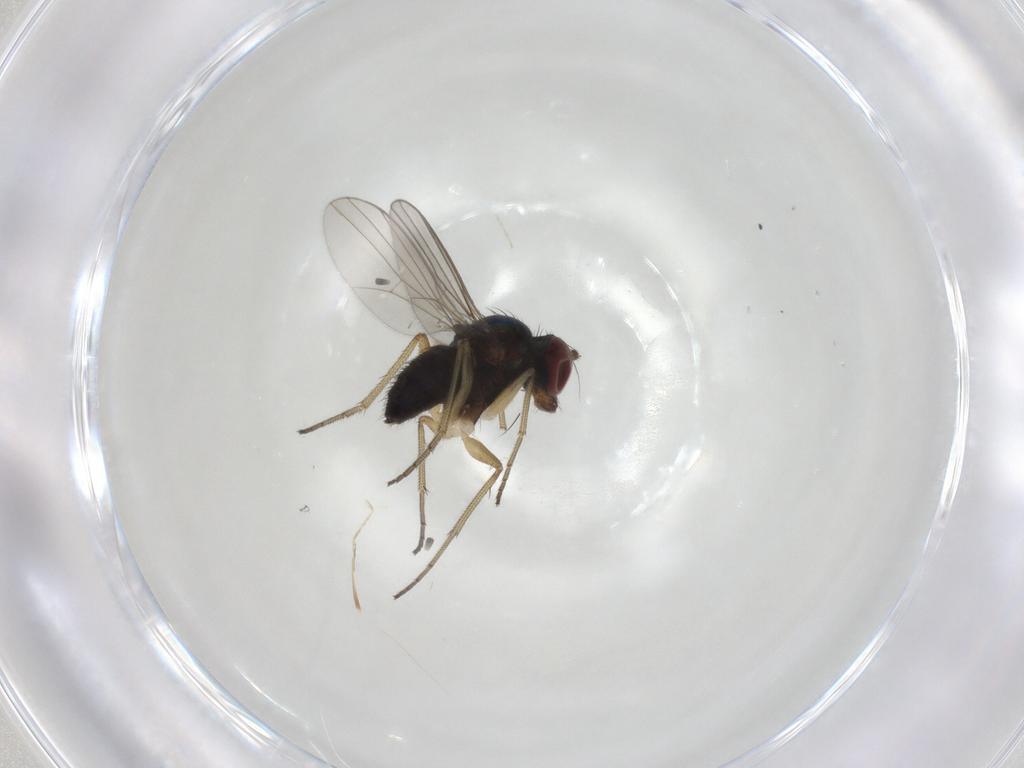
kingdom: Animalia
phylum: Arthropoda
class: Insecta
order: Diptera
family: Dolichopodidae
